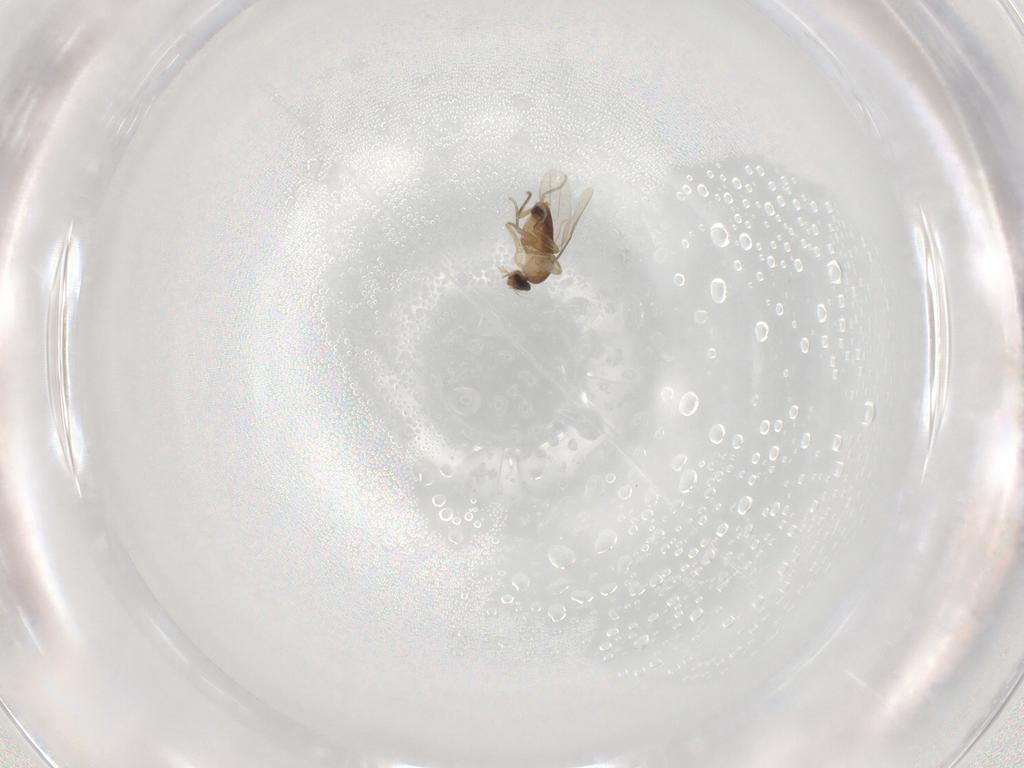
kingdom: Animalia
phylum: Arthropoda
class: Insecta
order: Diptera
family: Phoridae
